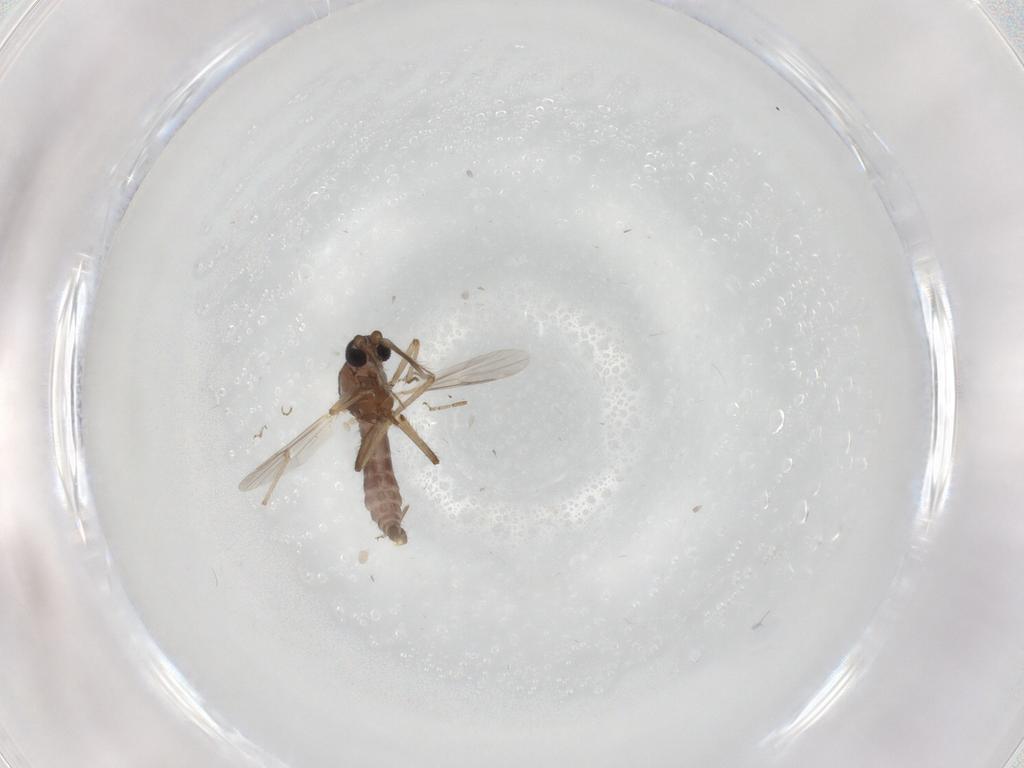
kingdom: Animalia
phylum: Arthropoda
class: Insecta
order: Diptera
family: Ceratopogonidae
